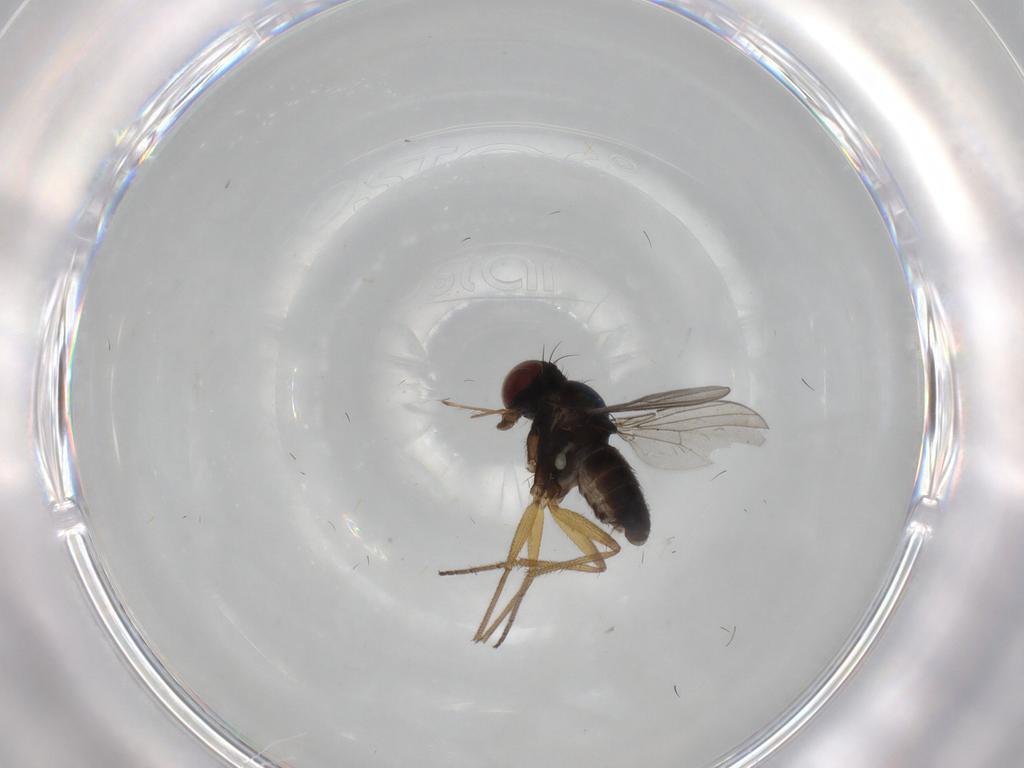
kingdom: Animalia
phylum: Arthropoda
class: Insecta
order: Diptera
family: Dolichopodidae
